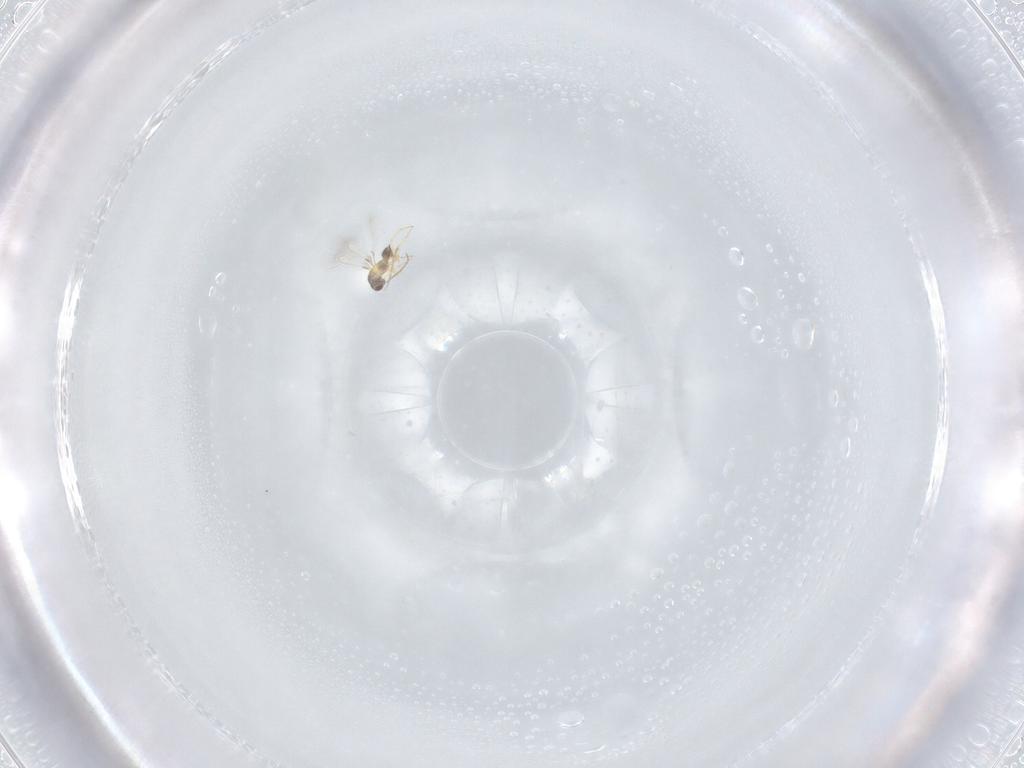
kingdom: Animalia
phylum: Arthropoda
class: Insecta
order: Hymenoptera
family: Mymaridae
